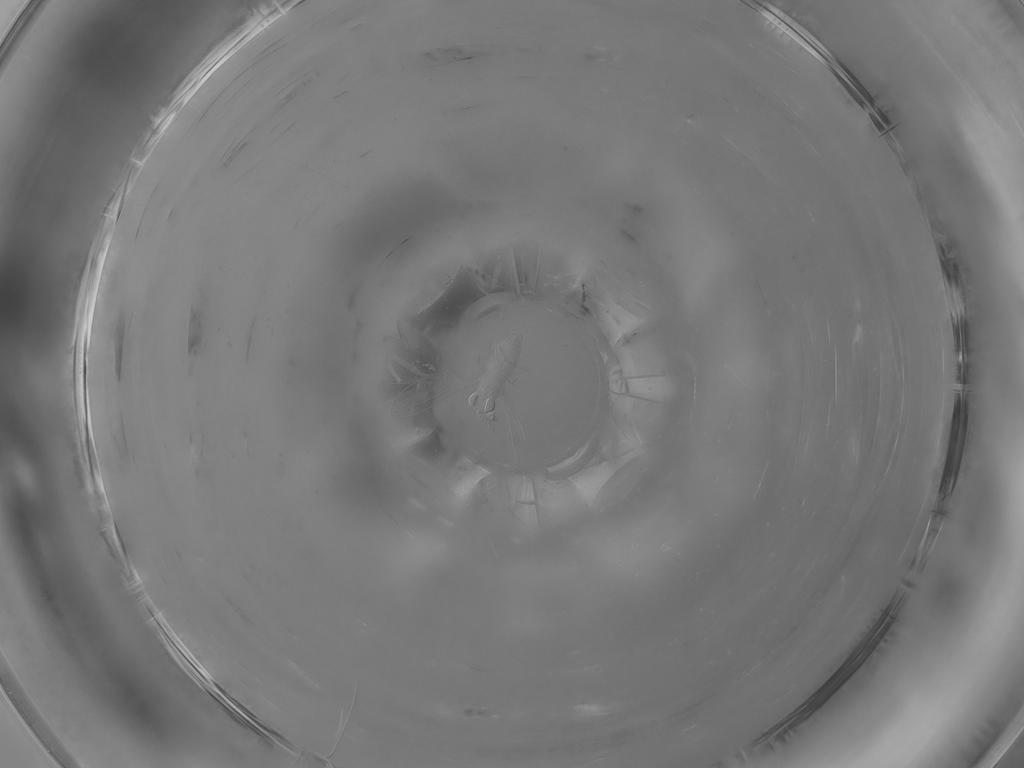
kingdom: Animalia
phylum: Arthropoda
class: Insecta
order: Diptera
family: Cecidomyiidae
